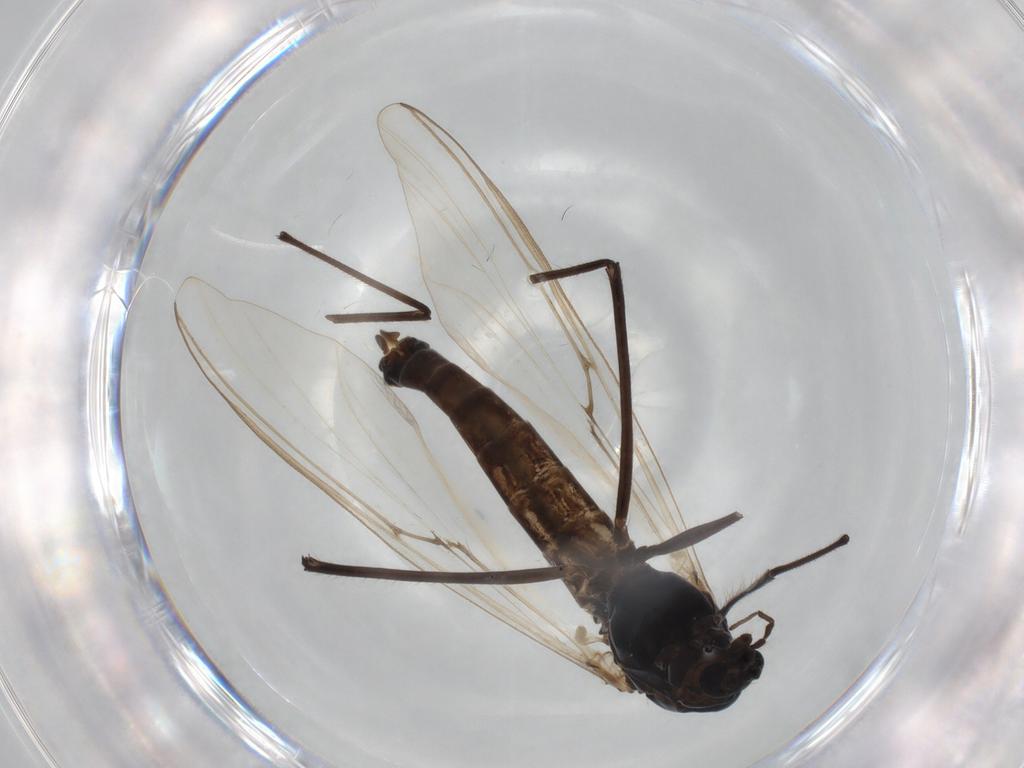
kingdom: Animalia
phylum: Arthropoda
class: Insecta
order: Diptera
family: Chironomidae
